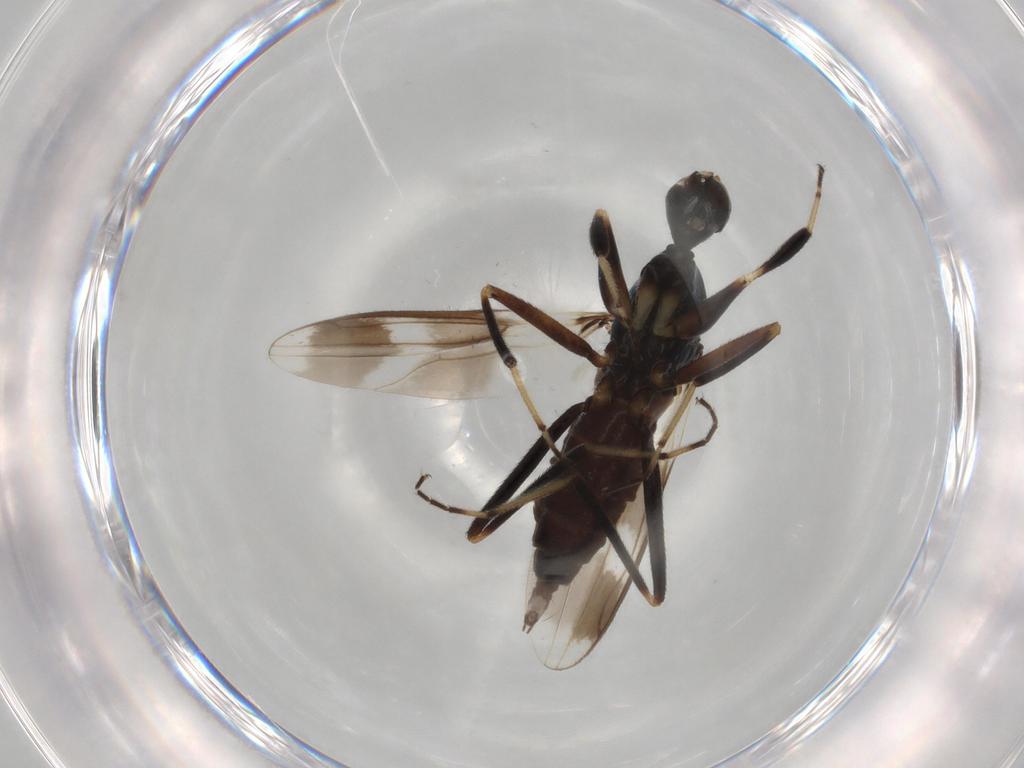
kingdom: Animalia
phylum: Arthropoda
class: Insecta
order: Diptera
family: Hybotidae
